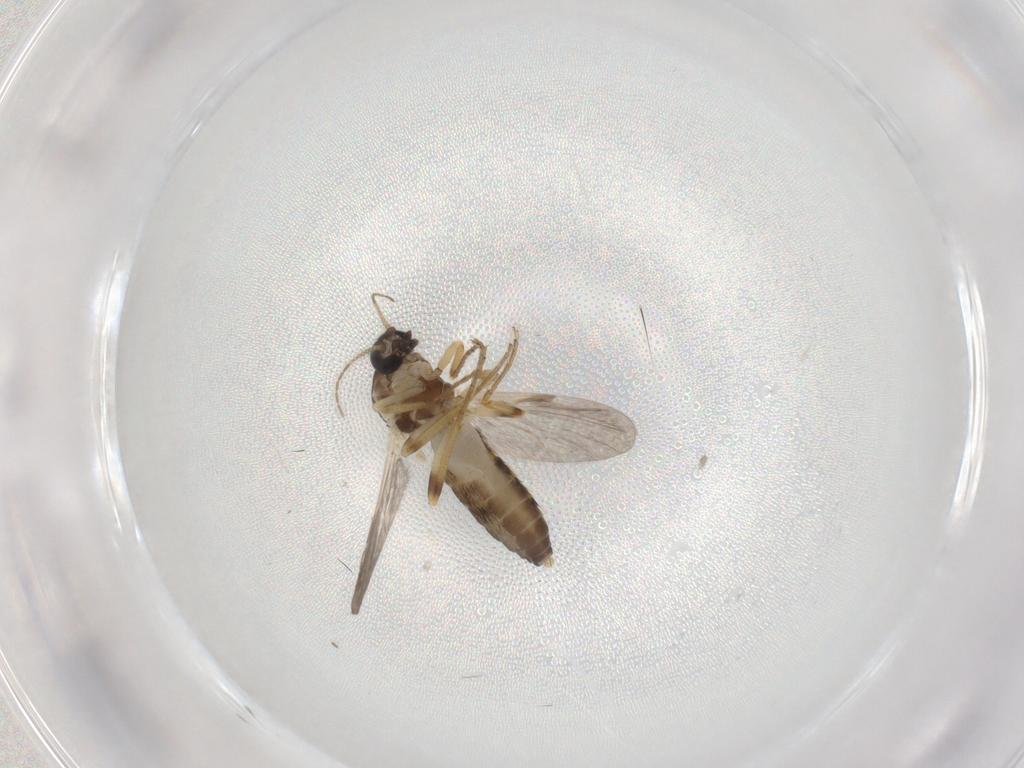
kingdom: Animalia
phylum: Arthropoda
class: Insecta
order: Diptera
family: Ceratopogonidae
